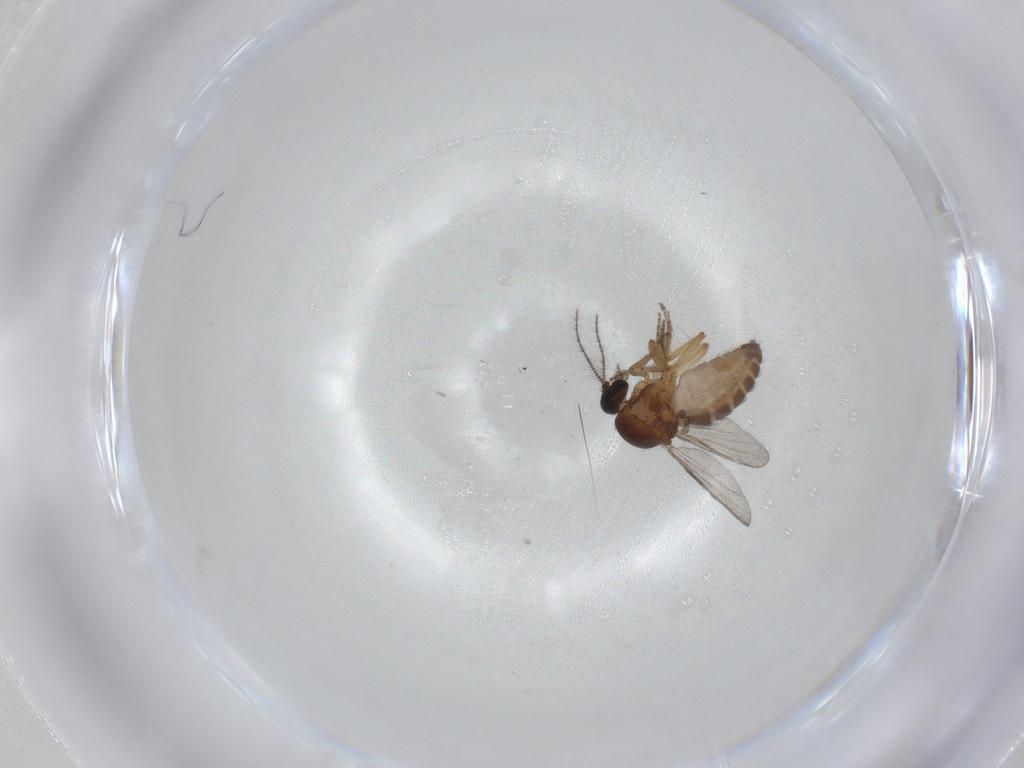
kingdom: Animalia
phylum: Arthropoda
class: Insecta
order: Diptera
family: Ceratopogonidae
